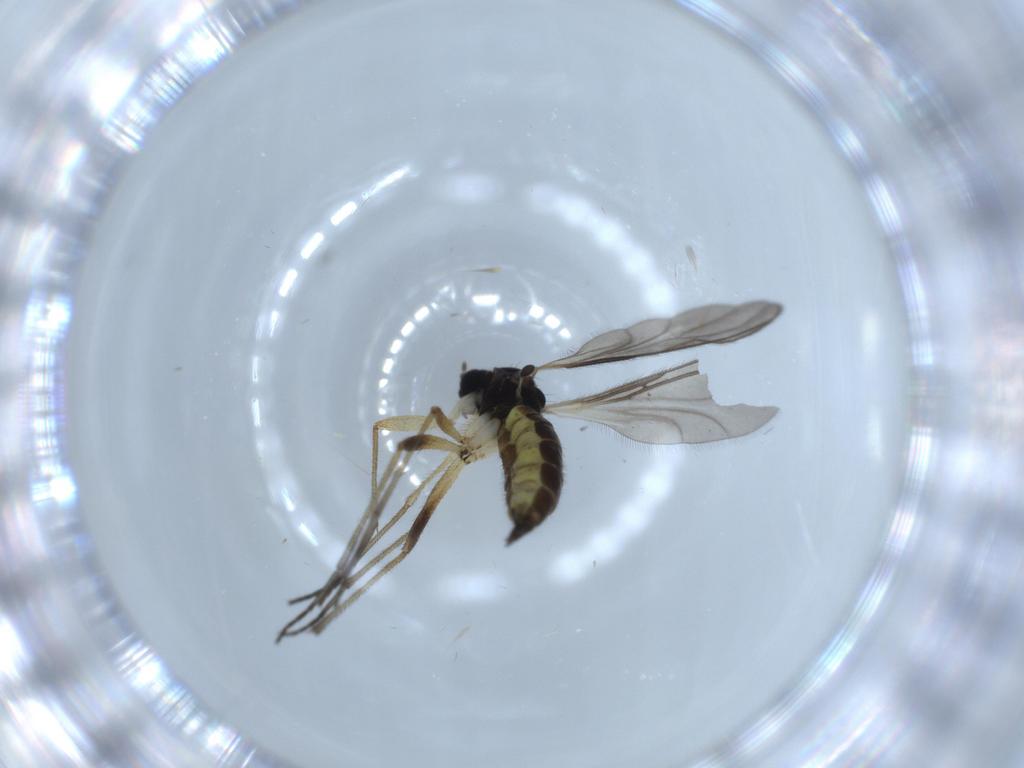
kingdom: Animalia
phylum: Arthropoda
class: Insecta
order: Diptera
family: Sciaridae
